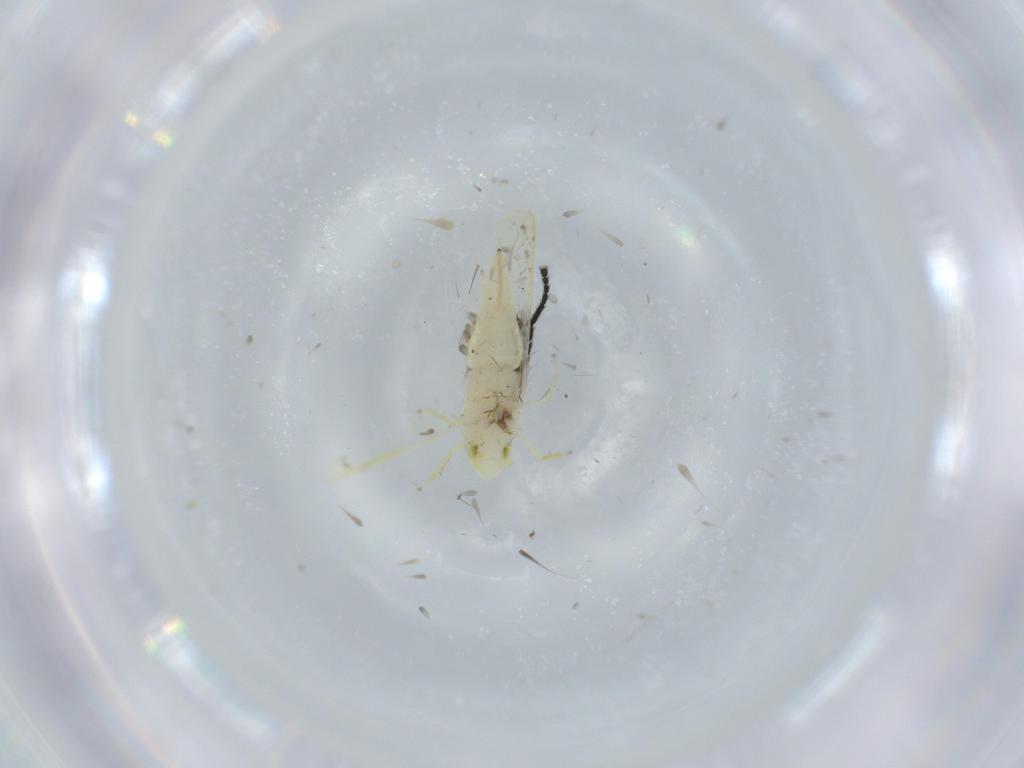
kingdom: Animalia
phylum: Arthropoda
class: Insecta
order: Hemiptera
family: Cicadellidae
